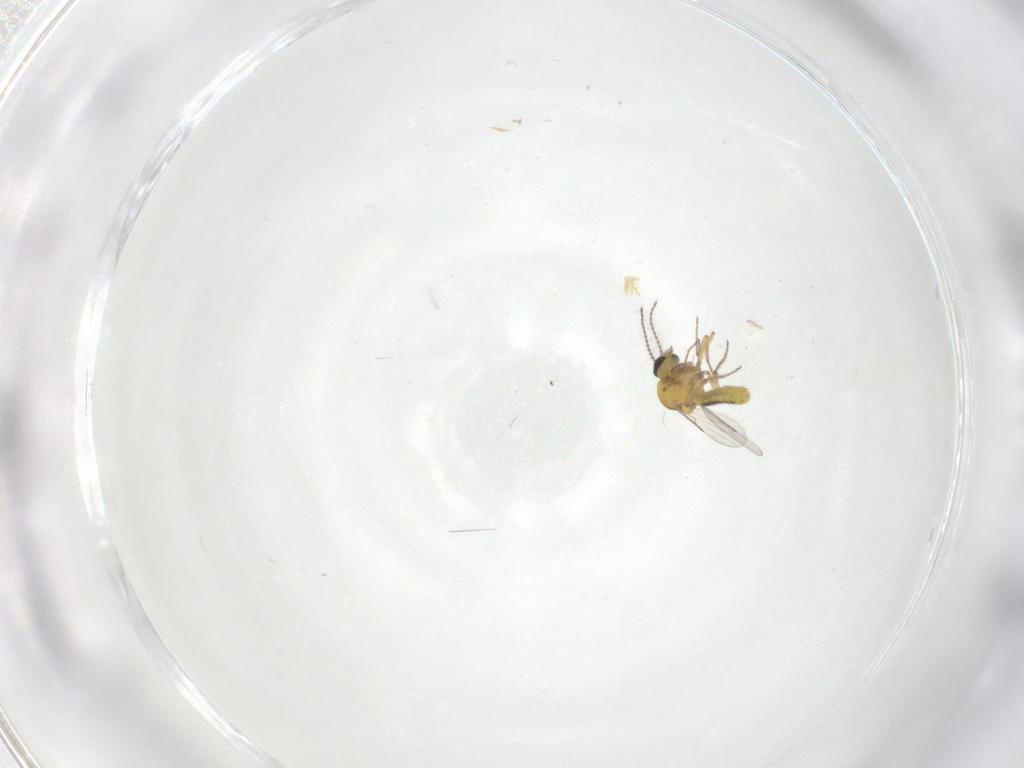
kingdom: Animalia
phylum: Arthropoda
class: Insecta
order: Diptera
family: Ceratopogonidae
